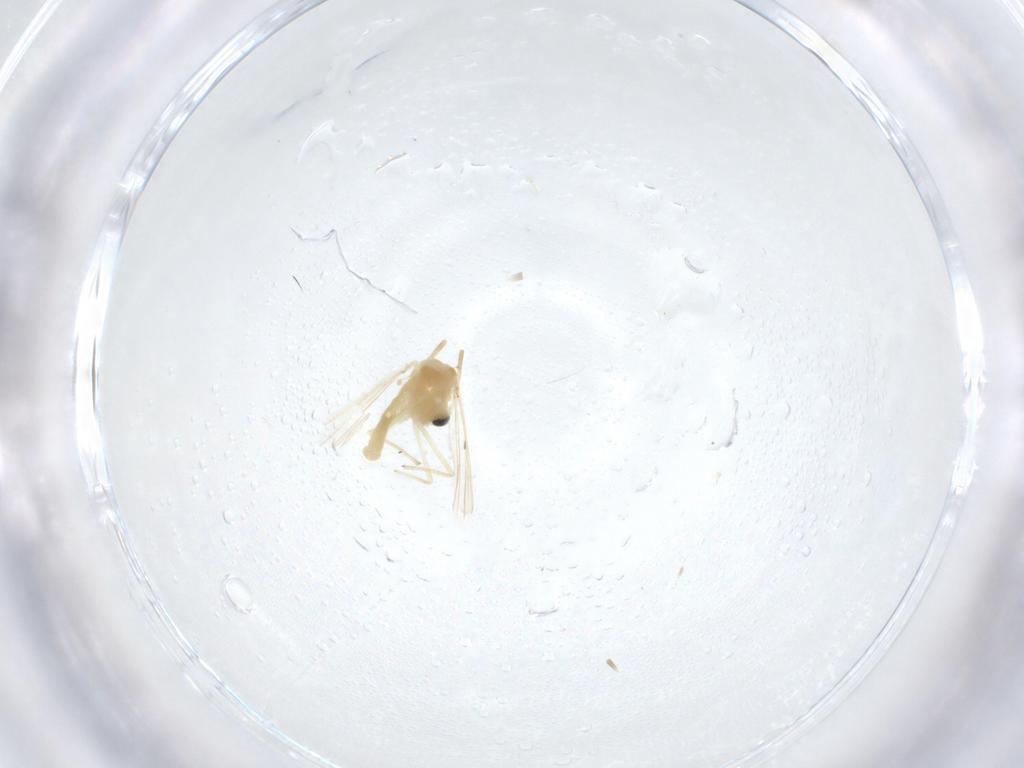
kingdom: Animalia
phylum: Arthropoda
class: Insecta
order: Diptera
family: Chironomidae
